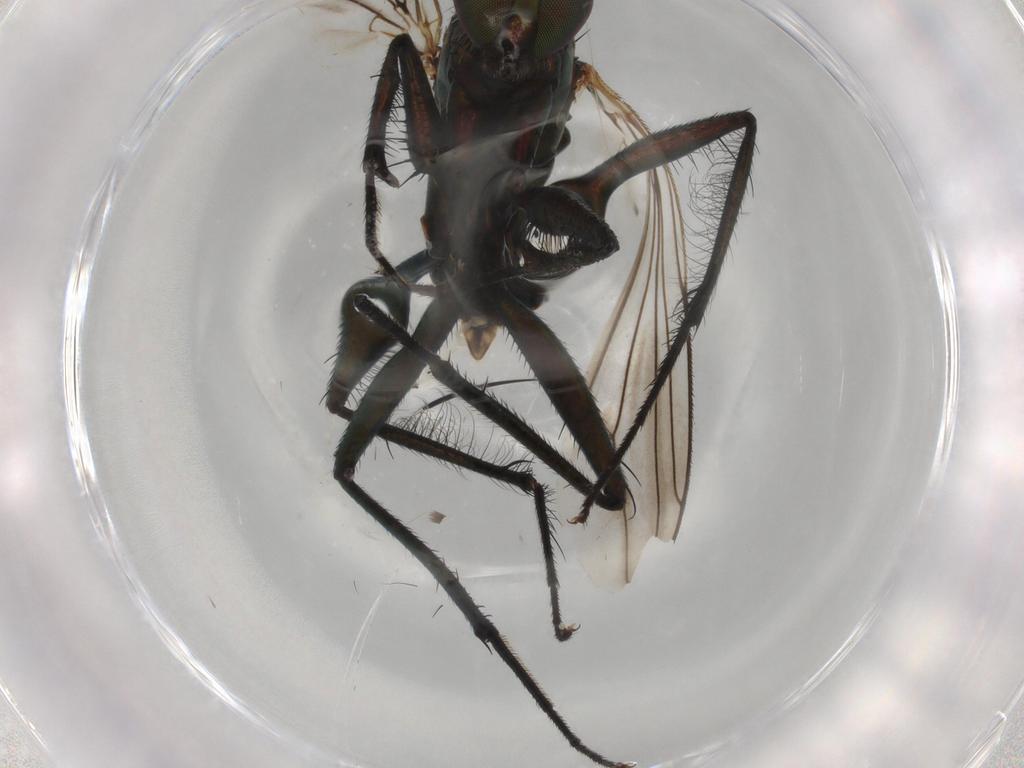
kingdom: Animalia
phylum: Arthropoda
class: Insecta
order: Diptera
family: Dolichopodidae
